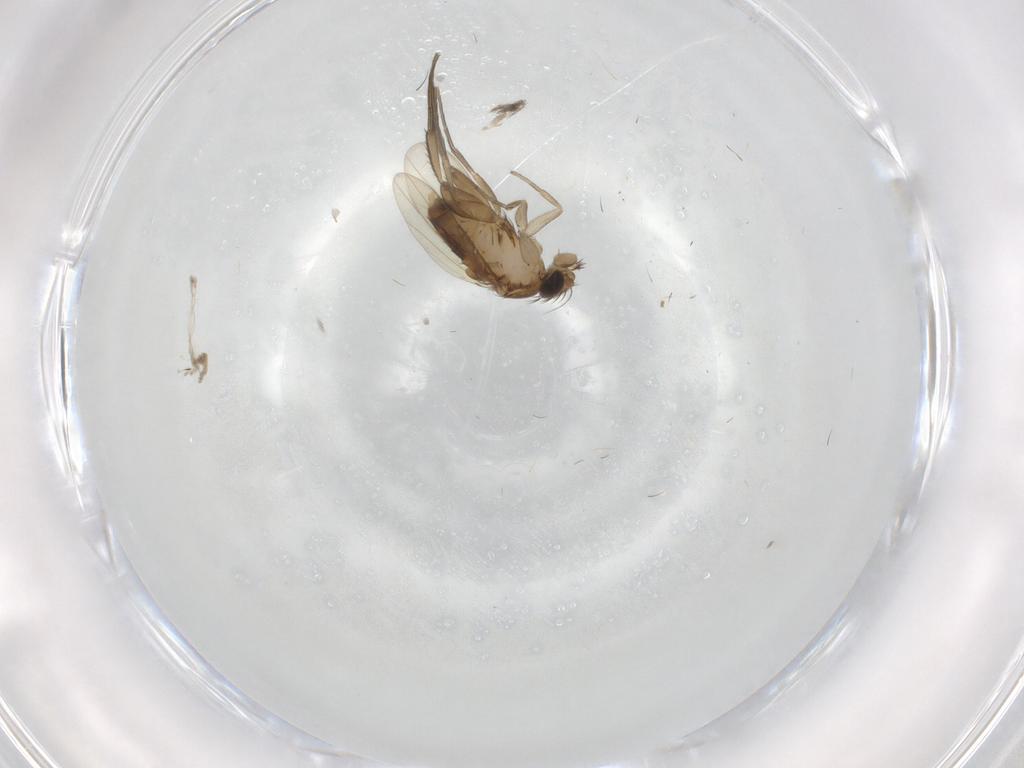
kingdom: Animalia
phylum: Arthropoda
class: Insecta
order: Diptera
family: Phoridae
